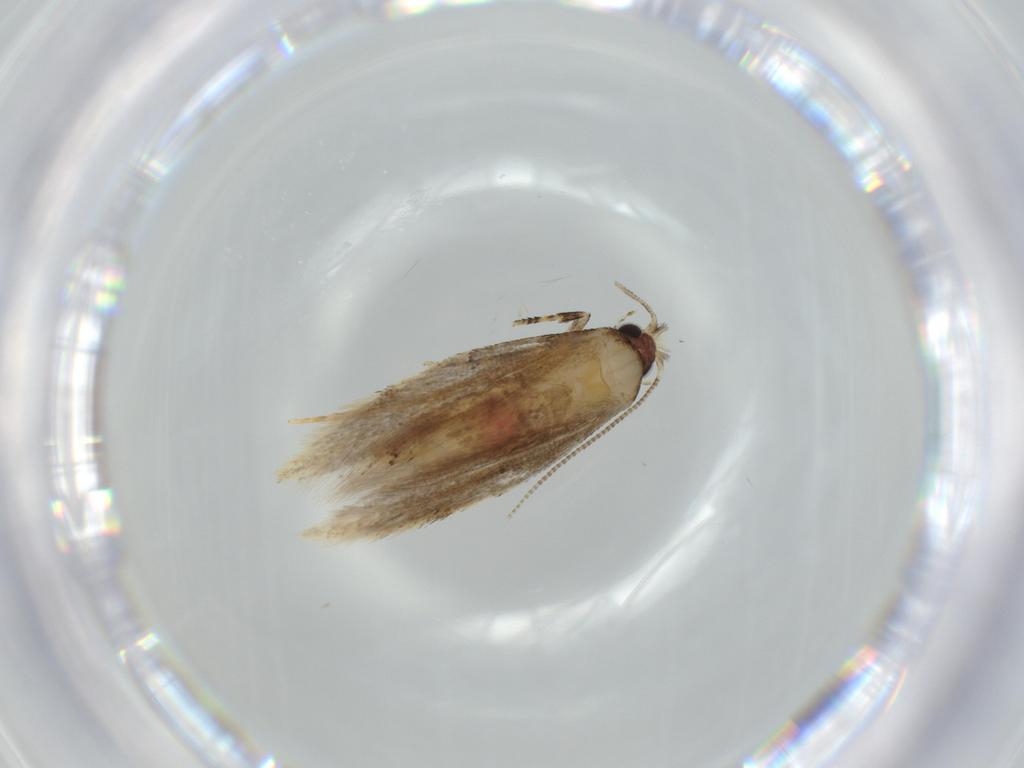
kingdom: Animalia
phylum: Arthropoda
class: Insecta
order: Lepidoptera
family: Tineidae
